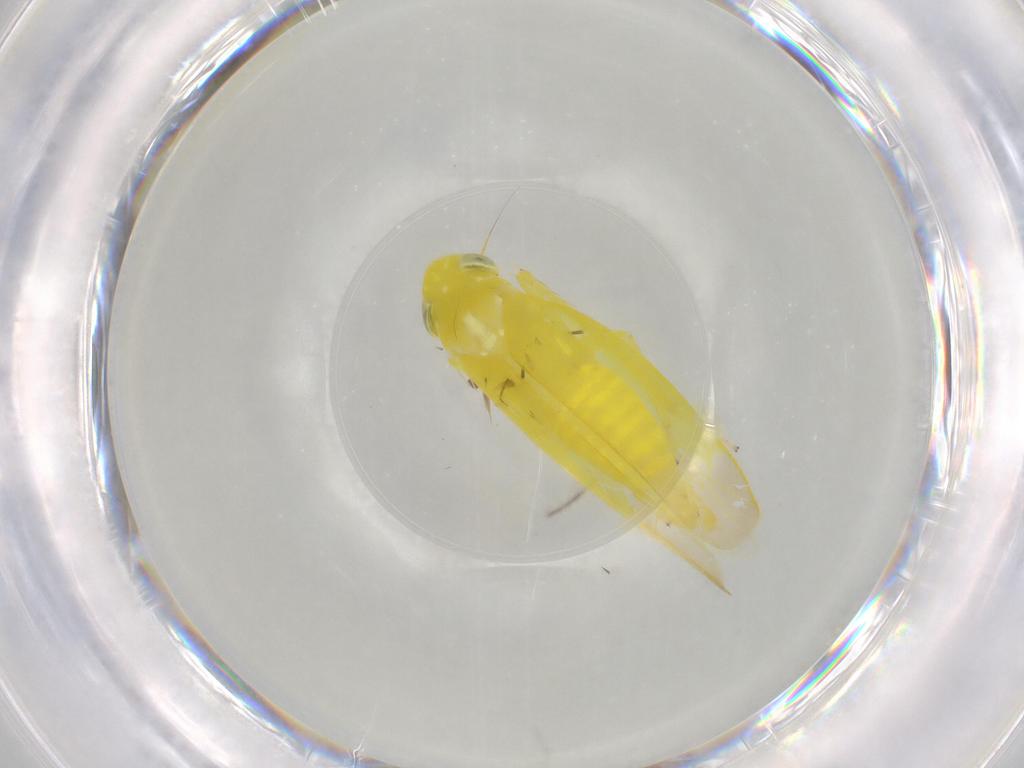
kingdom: Animalia
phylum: Arthropoda
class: Insecta
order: Hemiptera
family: Cicadellidae
